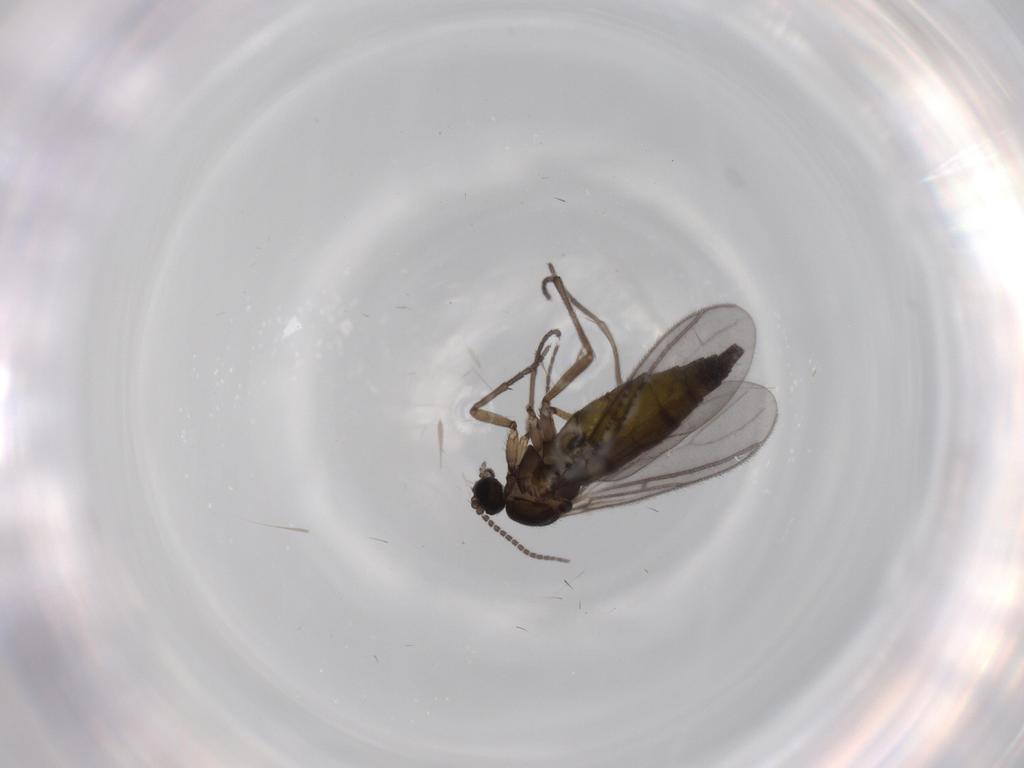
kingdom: Animalia
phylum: Arthropoda
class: Insecta
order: Diptera
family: Sciaridae
